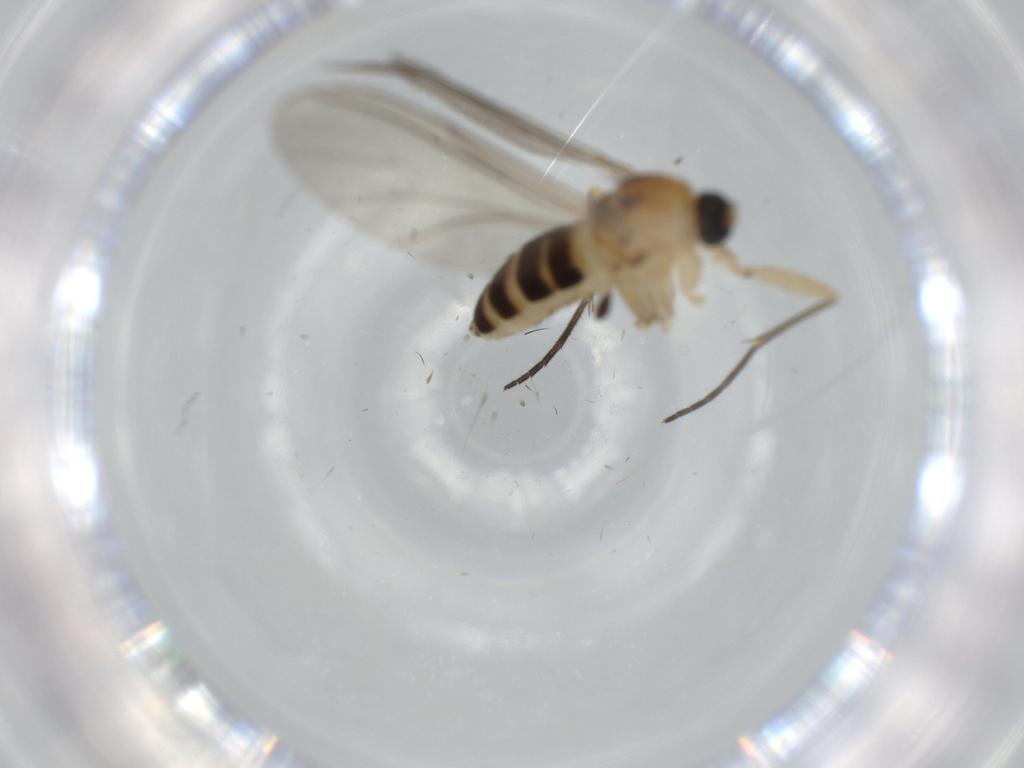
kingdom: Animalia
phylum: Arthropoda
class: Insecta
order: Diptera
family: Sciaridae
